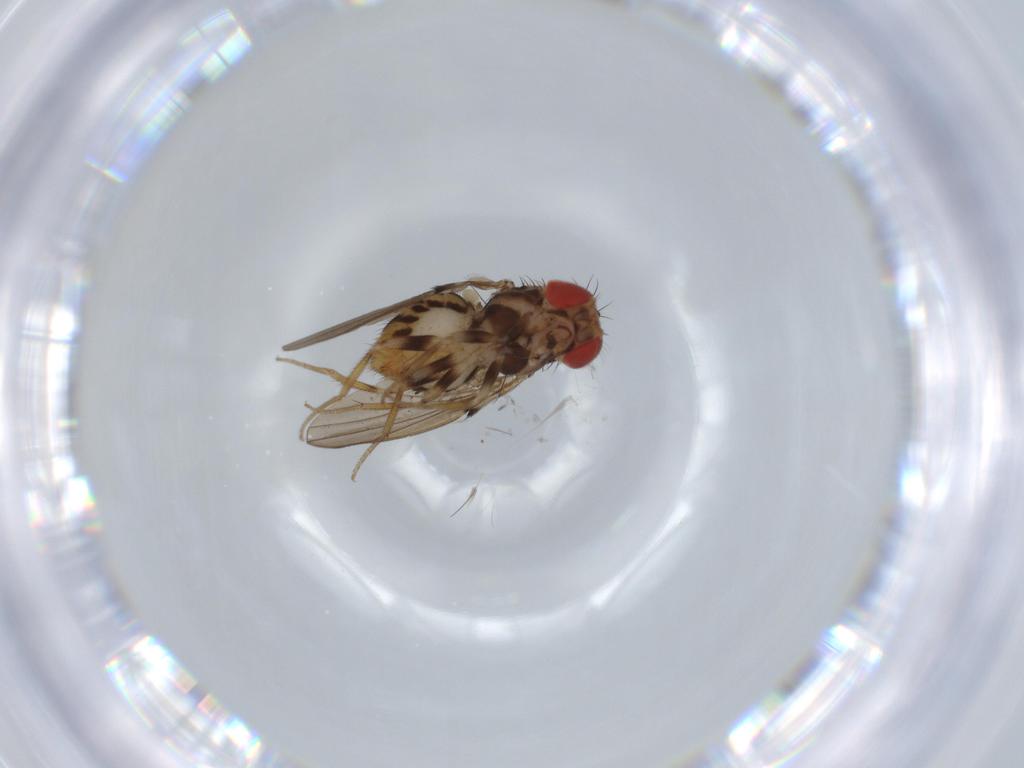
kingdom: Animalia
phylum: Arthropoda
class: Insecta
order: Diptera
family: Drosophilidae
